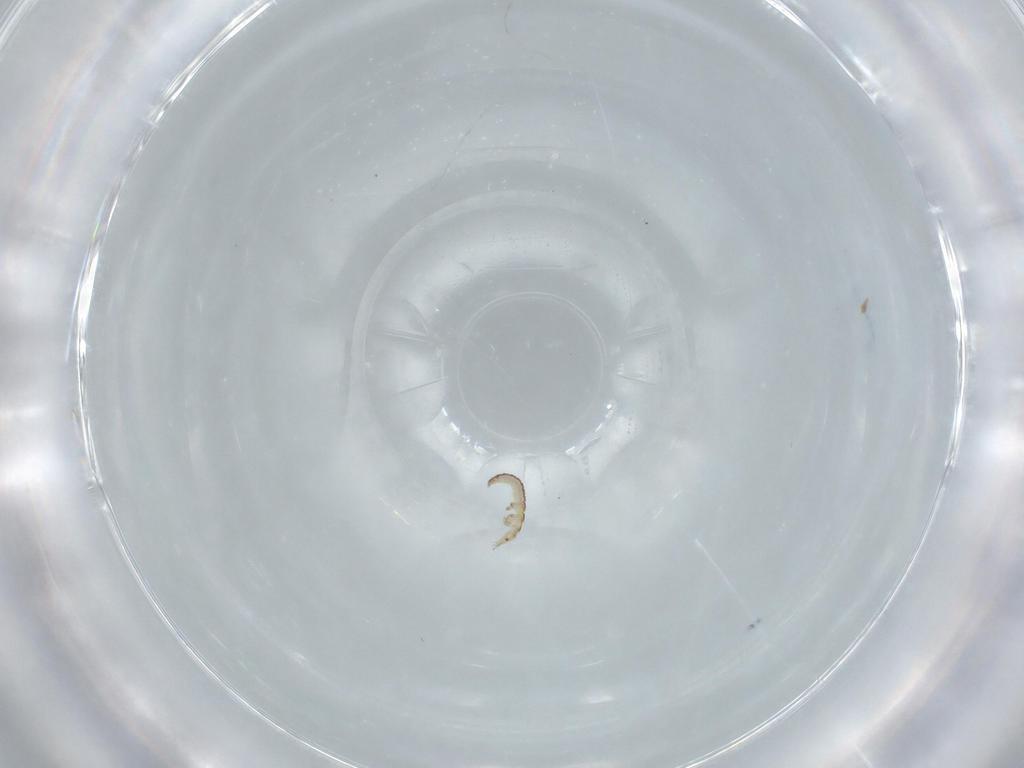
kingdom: Animalia
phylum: Arthropoda
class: Insecta
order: Neuroptera
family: Mantispidae
